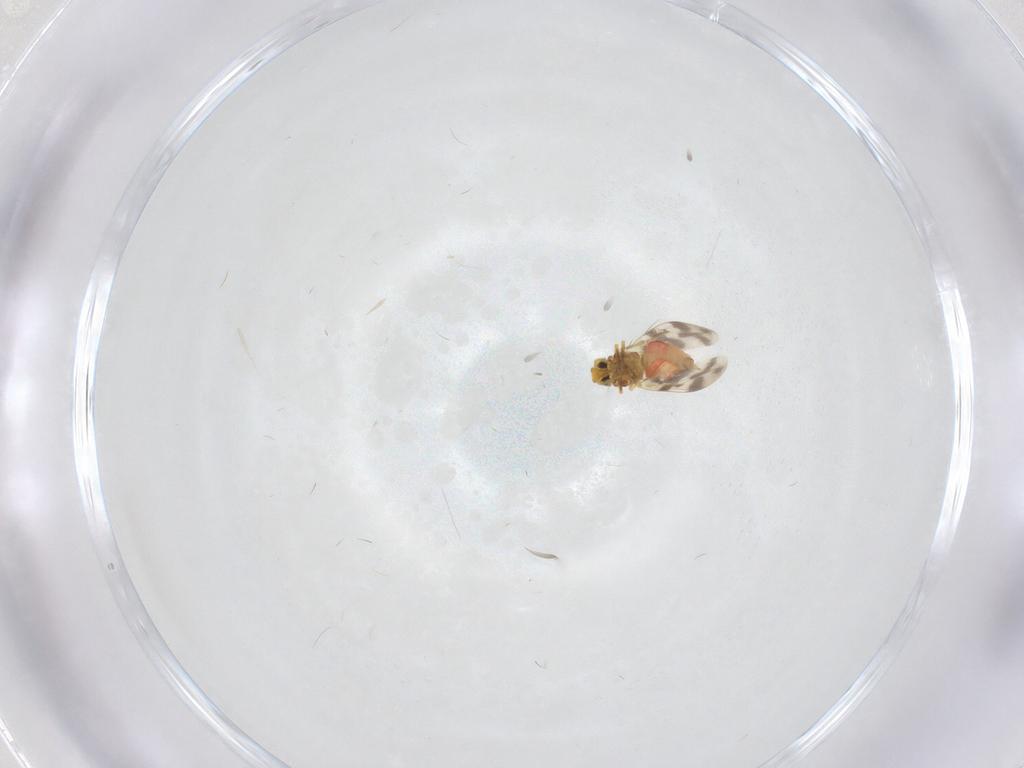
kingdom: Animalia
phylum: Arthropoda
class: Insecta
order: Hemiptera
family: Aleyrodidae
